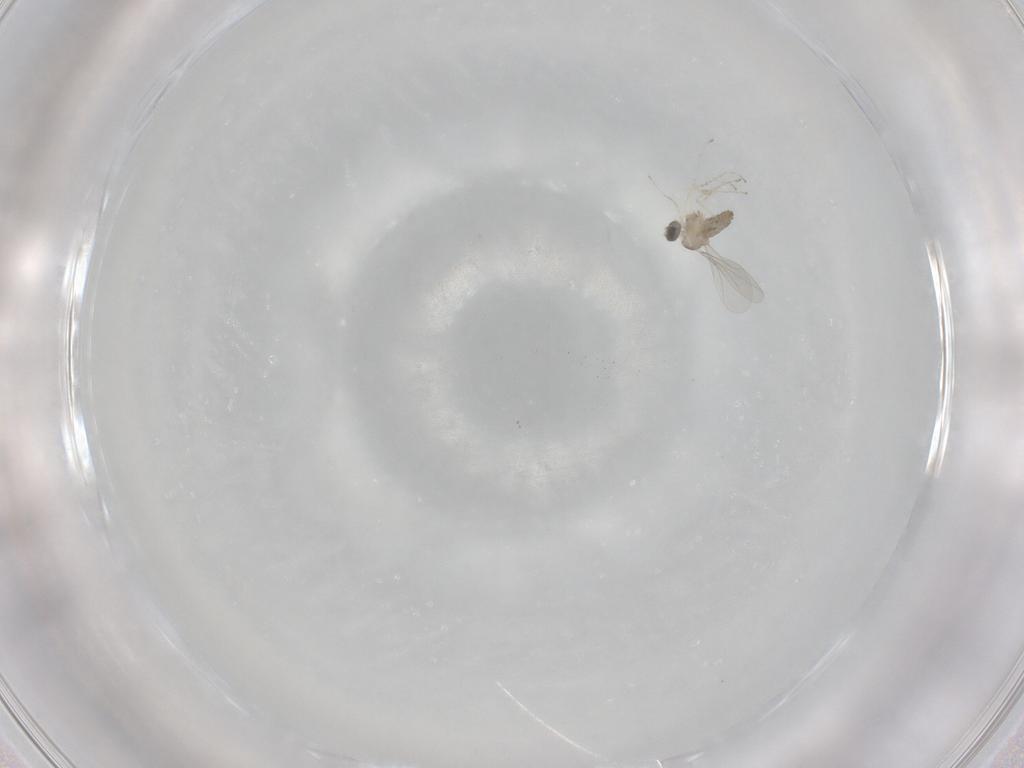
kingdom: Animalia
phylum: Arthropoda
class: Insecta
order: Diptera
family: Cecidomyiidae
